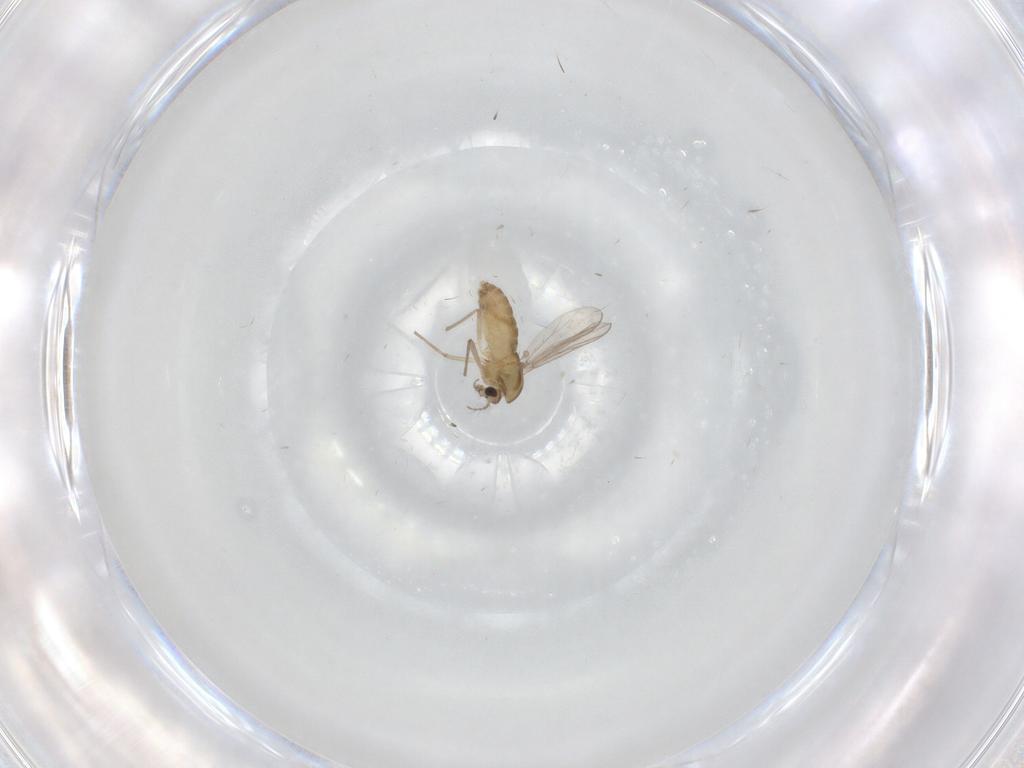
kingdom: Animalia
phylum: Arthropoda
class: Insecta
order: Diptera
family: Chironomidae
